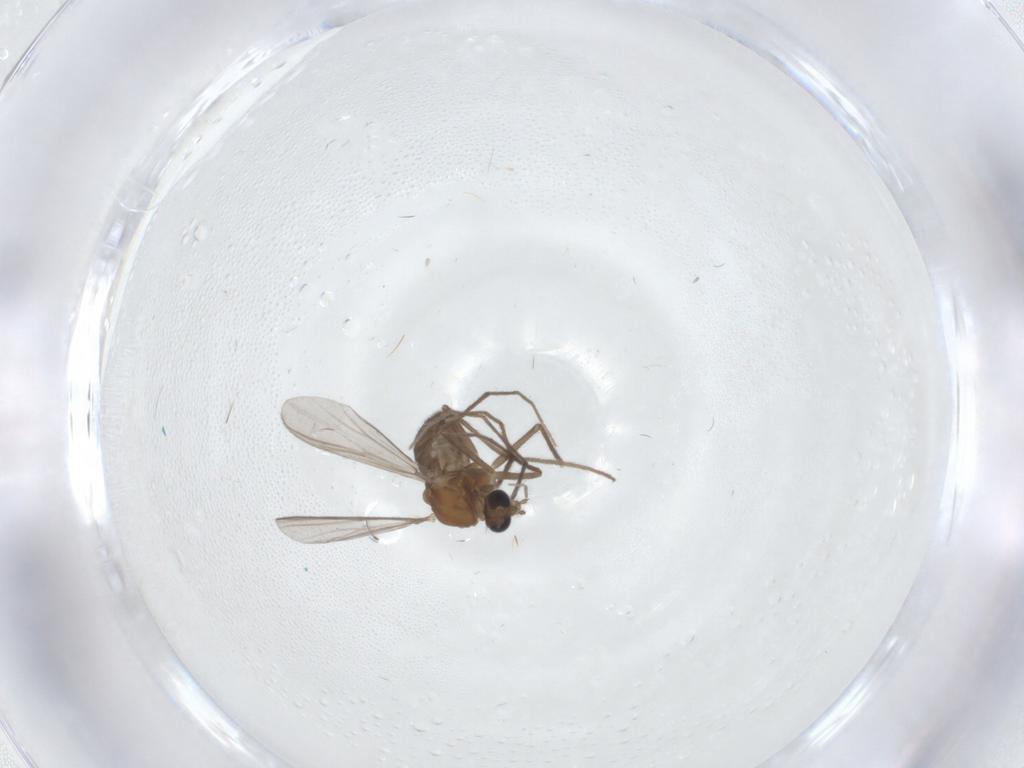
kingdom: Animalia
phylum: Arthropoda
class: Insecta
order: Diptera
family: Chironomidae
